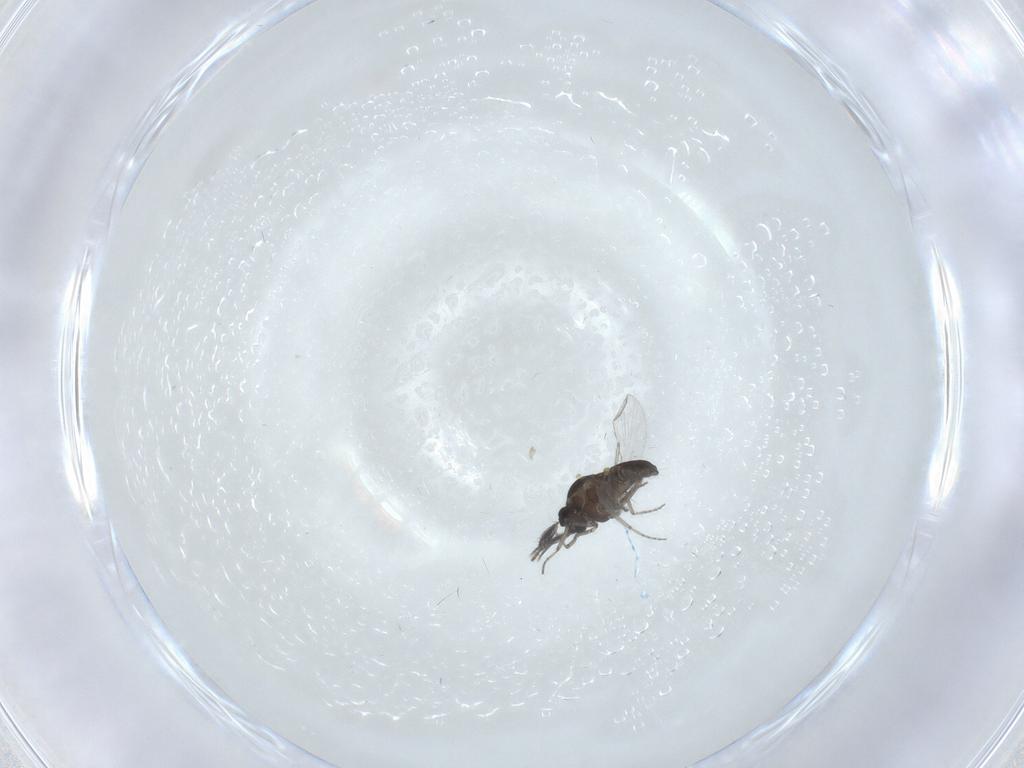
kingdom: Animalia
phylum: Arthropoda
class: Insecta
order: Diptera
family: Ceratopogonidae
